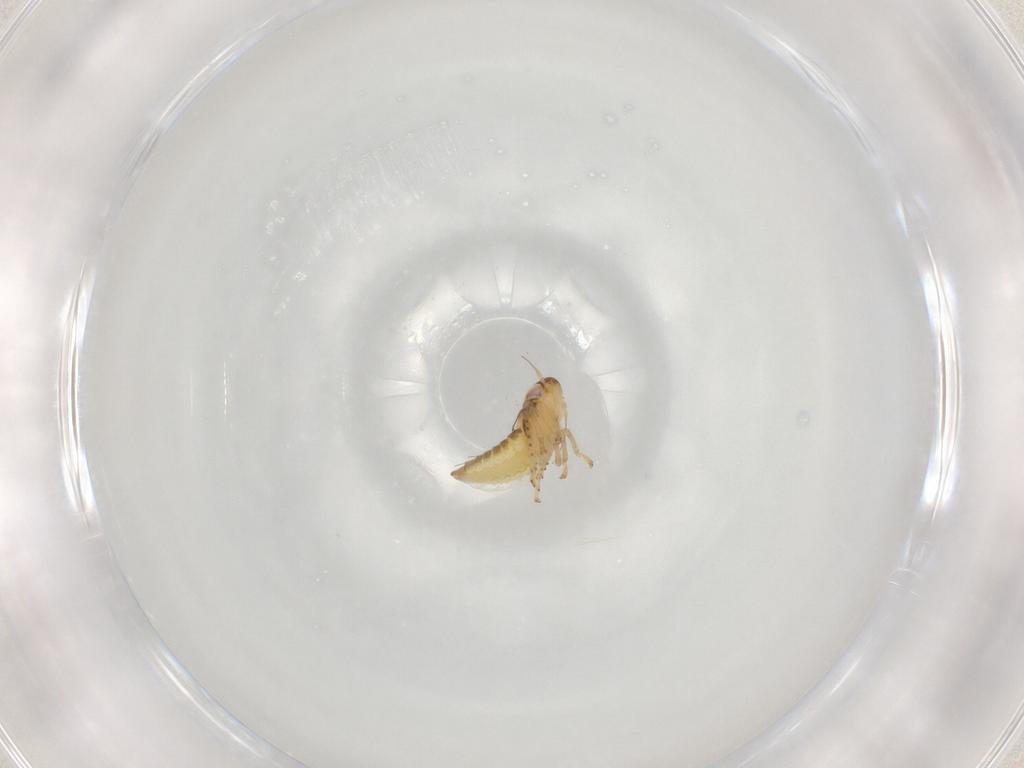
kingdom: Animalia
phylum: Arthropoda
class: Insecta
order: Hemiptera
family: Cicadellidae
